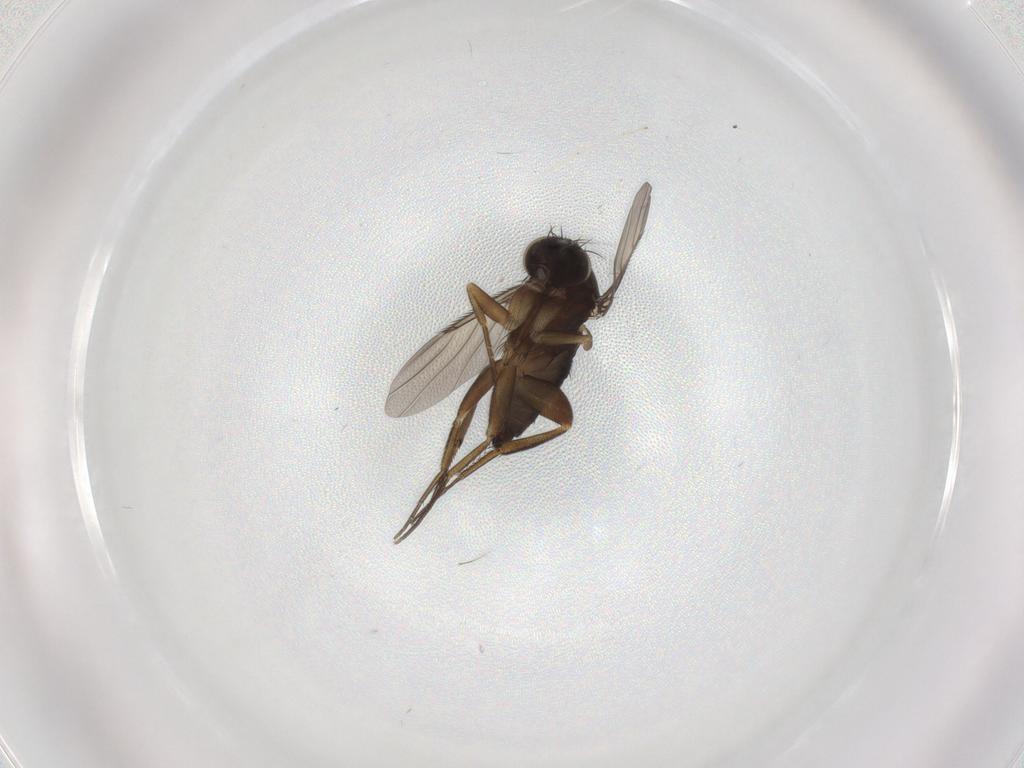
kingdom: Animalia
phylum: Arthropoda
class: Insecta
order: Diptera
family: Phoridae
